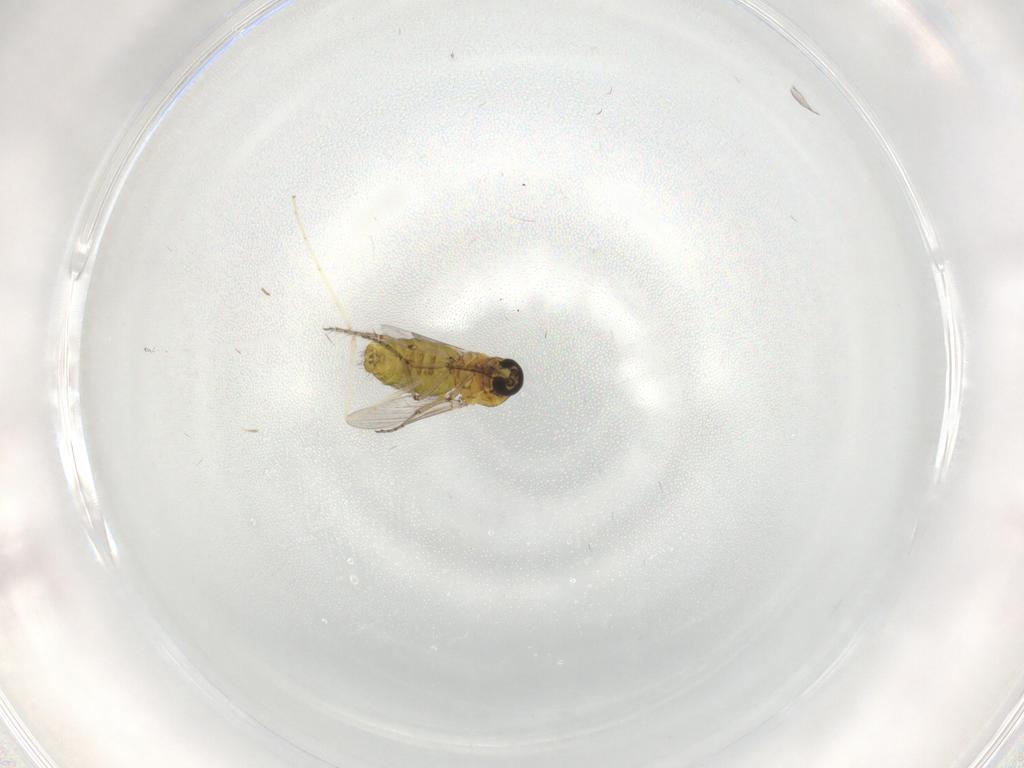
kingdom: Animalia
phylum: Arthropoda
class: Insecta
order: Diptera
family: Cecidomyiidae
